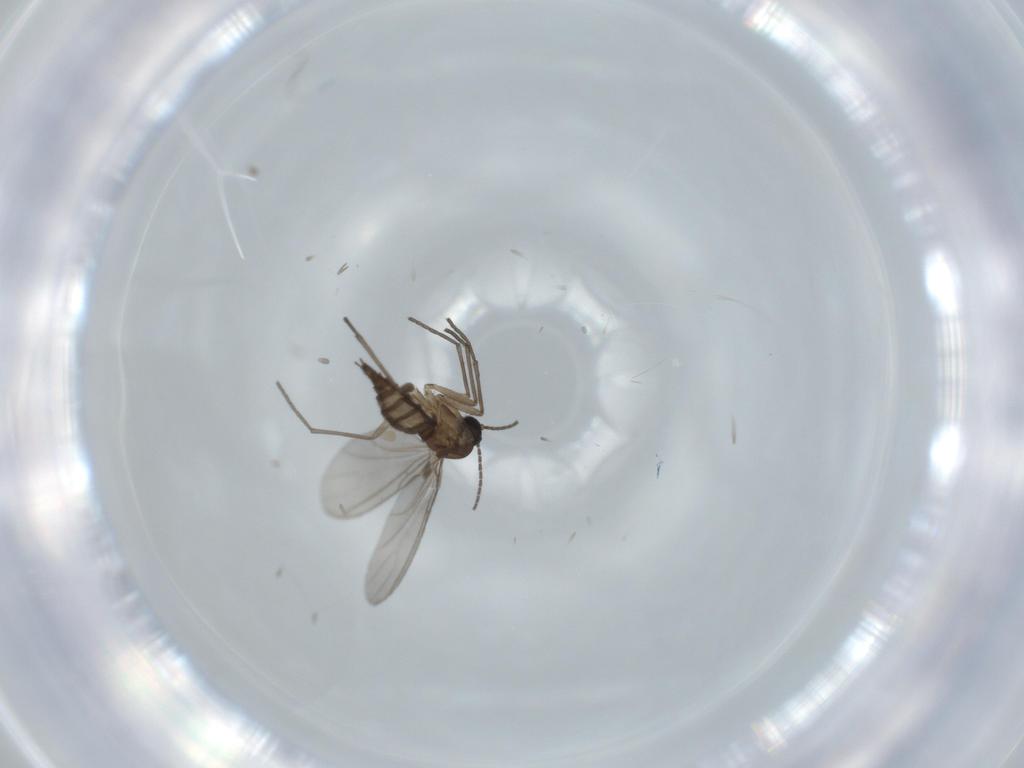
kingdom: Animalia
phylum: Arthropoda
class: Insecta
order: Diptera
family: Cecidomyiidae
